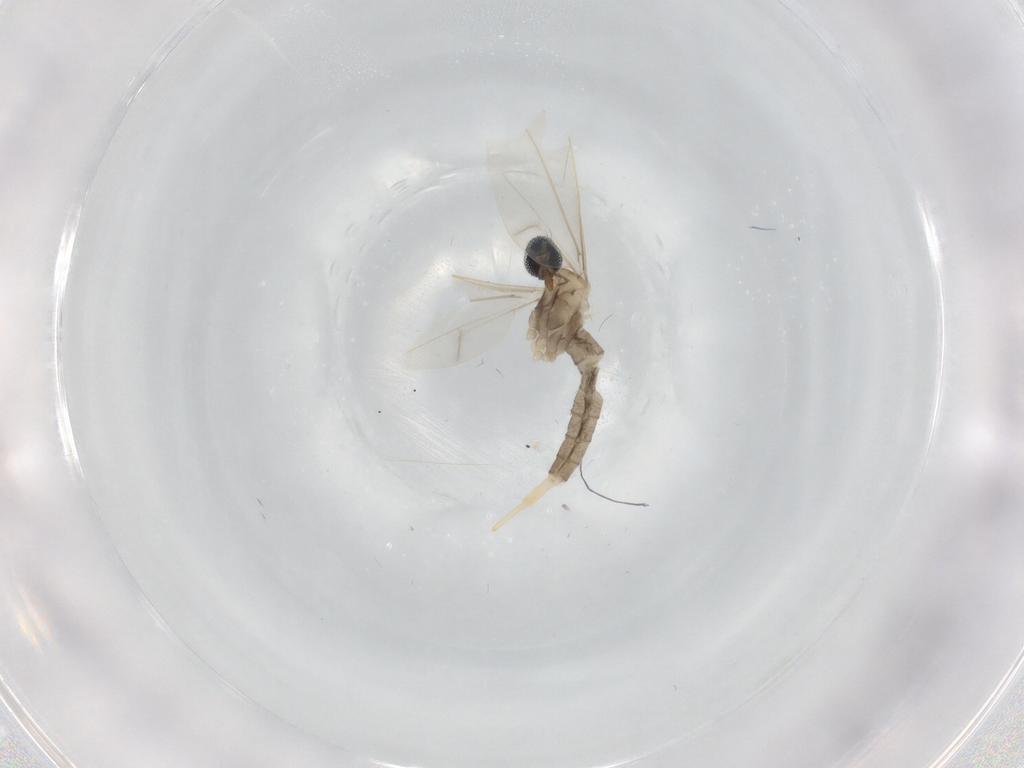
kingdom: Animalia
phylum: Arthropoda
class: Insecta
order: Diptera
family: Cecidomyiidae
